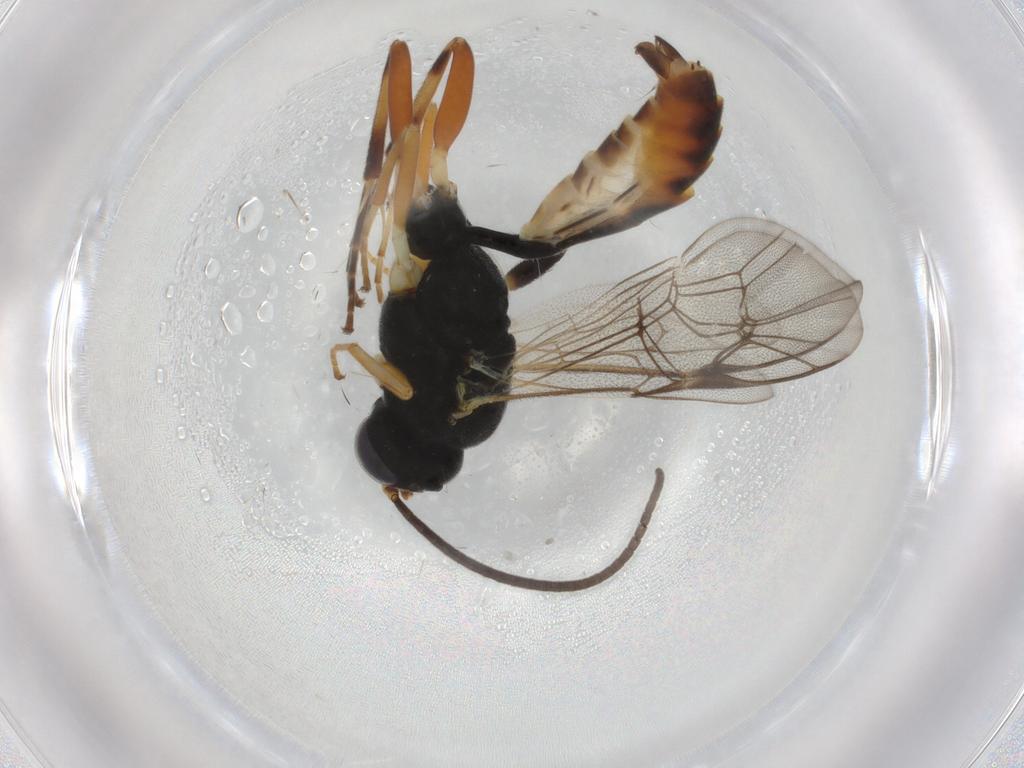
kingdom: Animalia
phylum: Arthropoda
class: Insecta
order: Hymenoptera
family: Ichneumonidae
